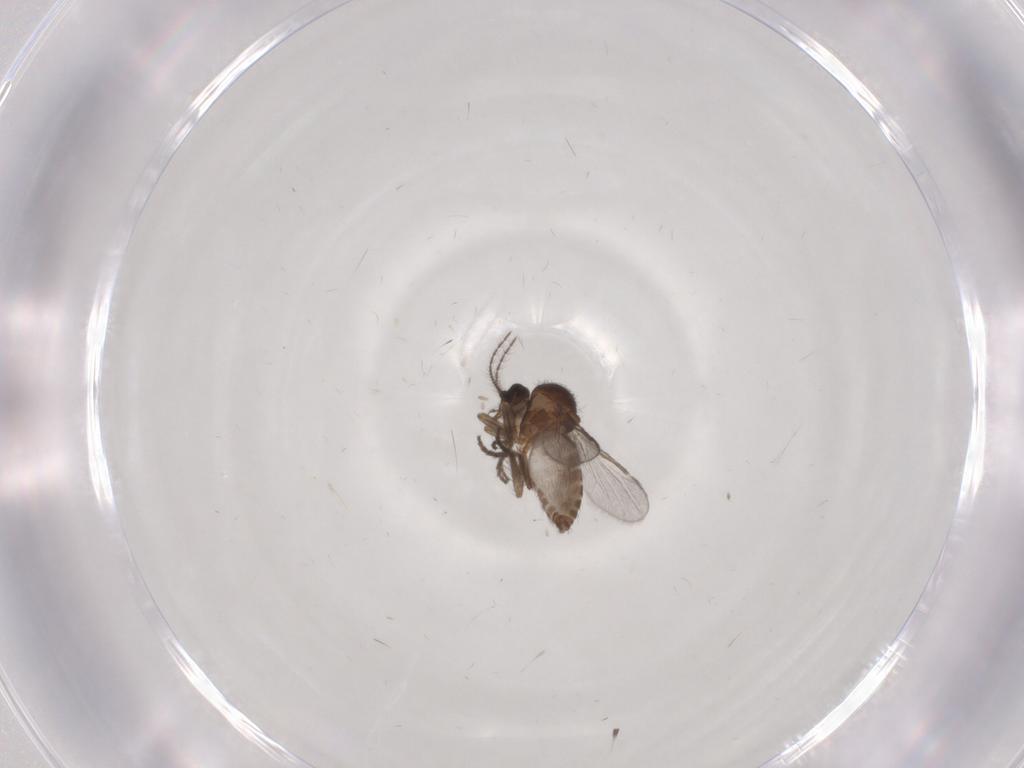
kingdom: Animalia
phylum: Arthropoda
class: Insecta
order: Diptera
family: Ceratopogonidae
